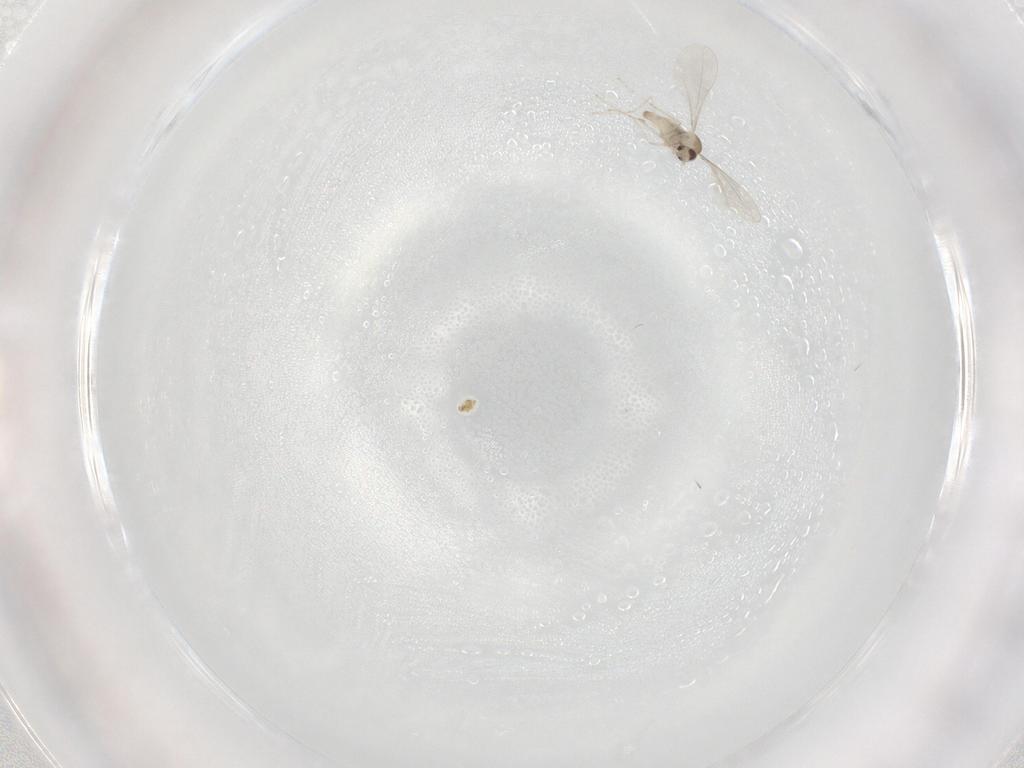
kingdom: Animalia
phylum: Arthropoda
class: Insecta
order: Diptera
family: Cecidomyiidae
